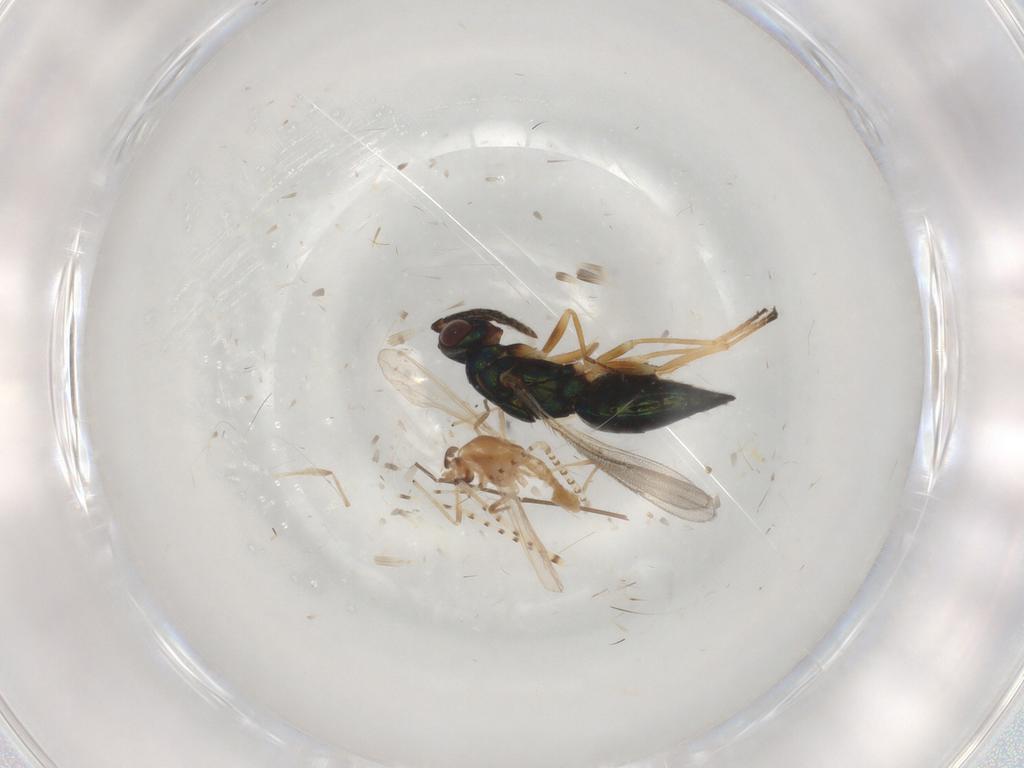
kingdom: Animalia
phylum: Arthropoda
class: Insecta
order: Hymenoptera
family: Eulophidae
